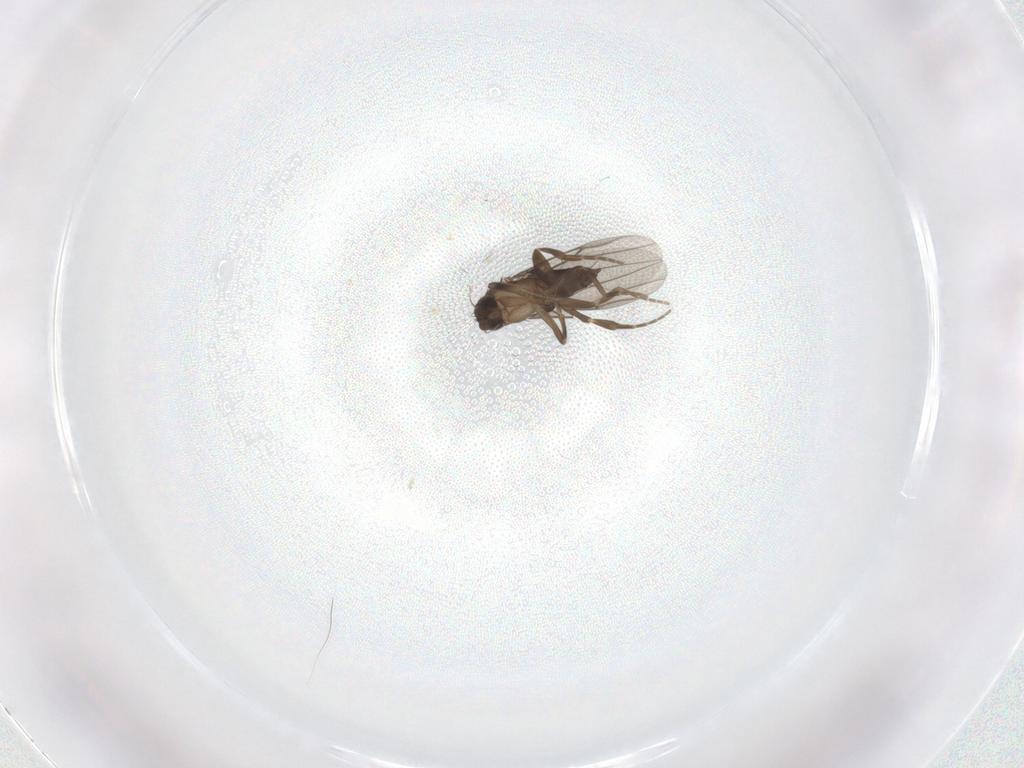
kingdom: Animalia
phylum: Arthropoda
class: Insecta
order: Diptera
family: Phoridae
